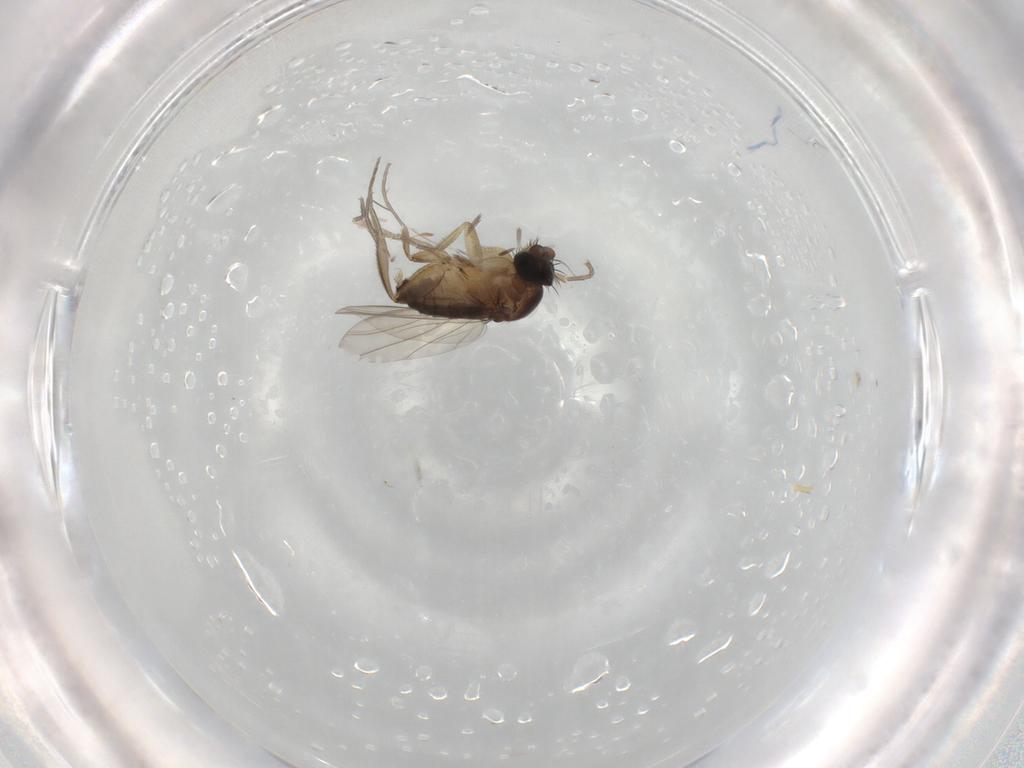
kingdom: Animalia
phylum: Arthropoda
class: Insecta
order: Diptera
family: Phoridae
